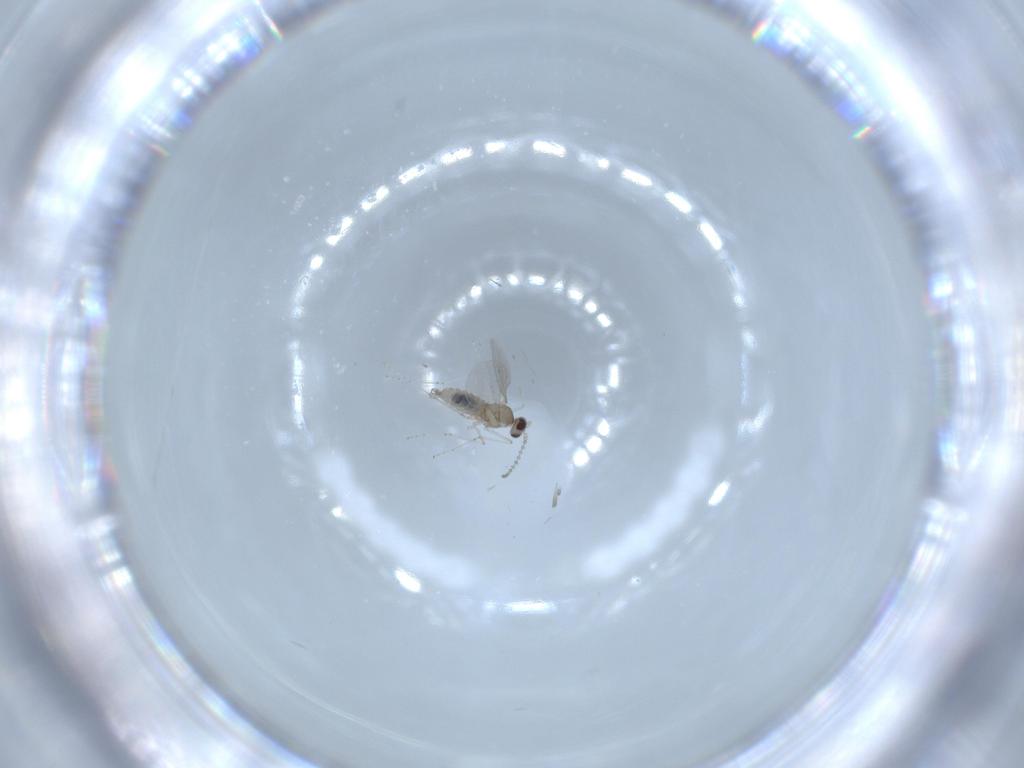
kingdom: Animalia
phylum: Arthropoda
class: Insecta
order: Diptera
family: Cecidomyiidae
